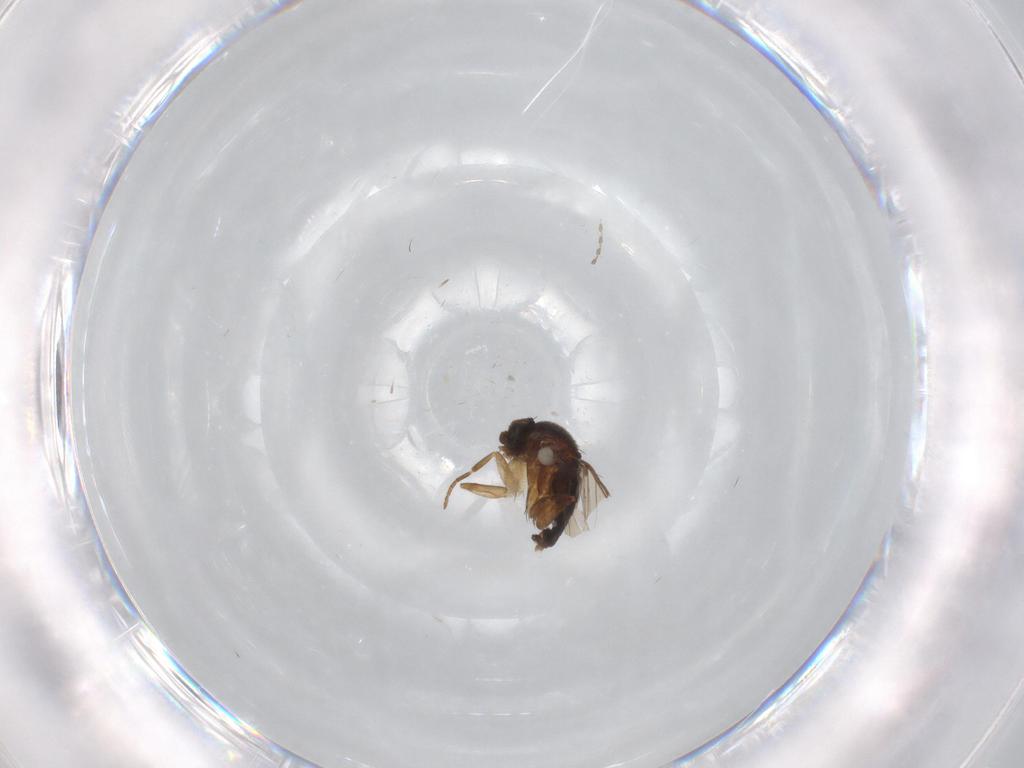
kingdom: Animalia
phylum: Arthropoda
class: Insecta
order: Diptera
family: Phoridae
